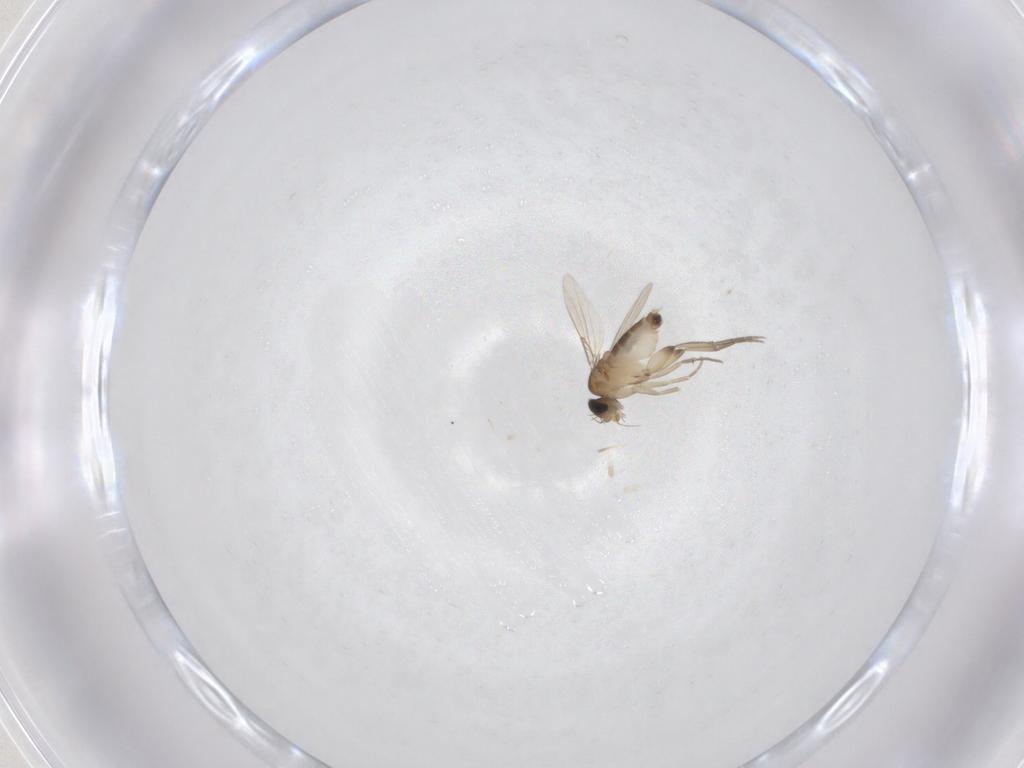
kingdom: Animalia
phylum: Arthropoda
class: Insecta
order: Diptera
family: Phoridae
